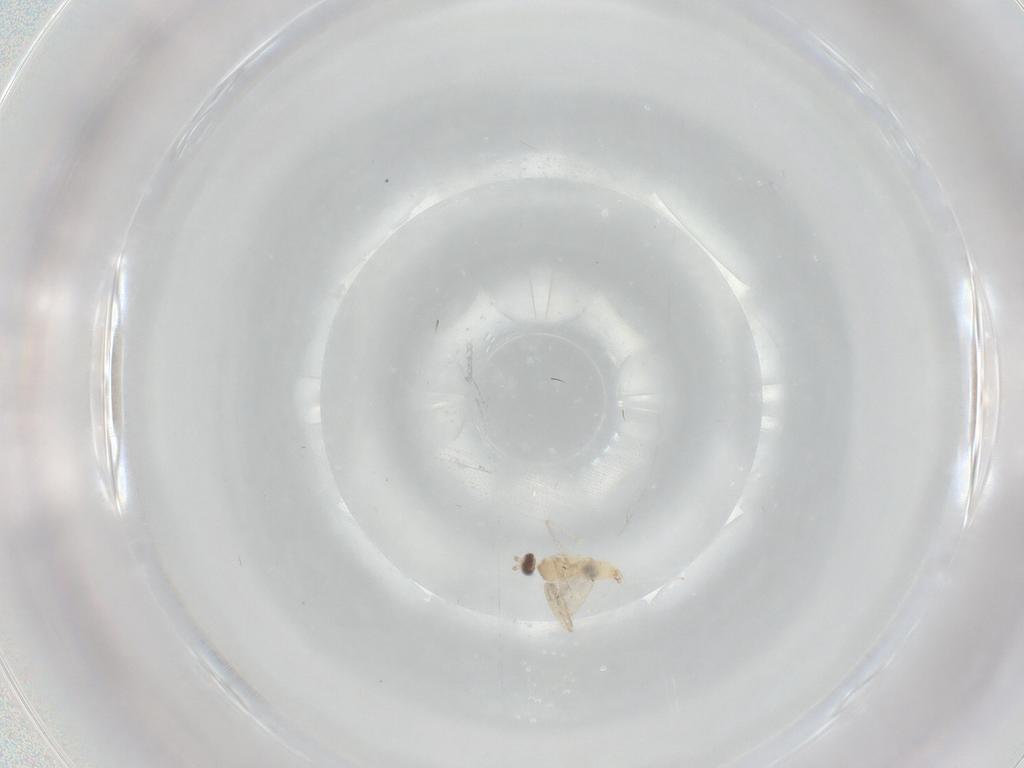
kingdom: Animalia
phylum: Arthropoda
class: Insecta
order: Diptera
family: Cecidomyiidae
